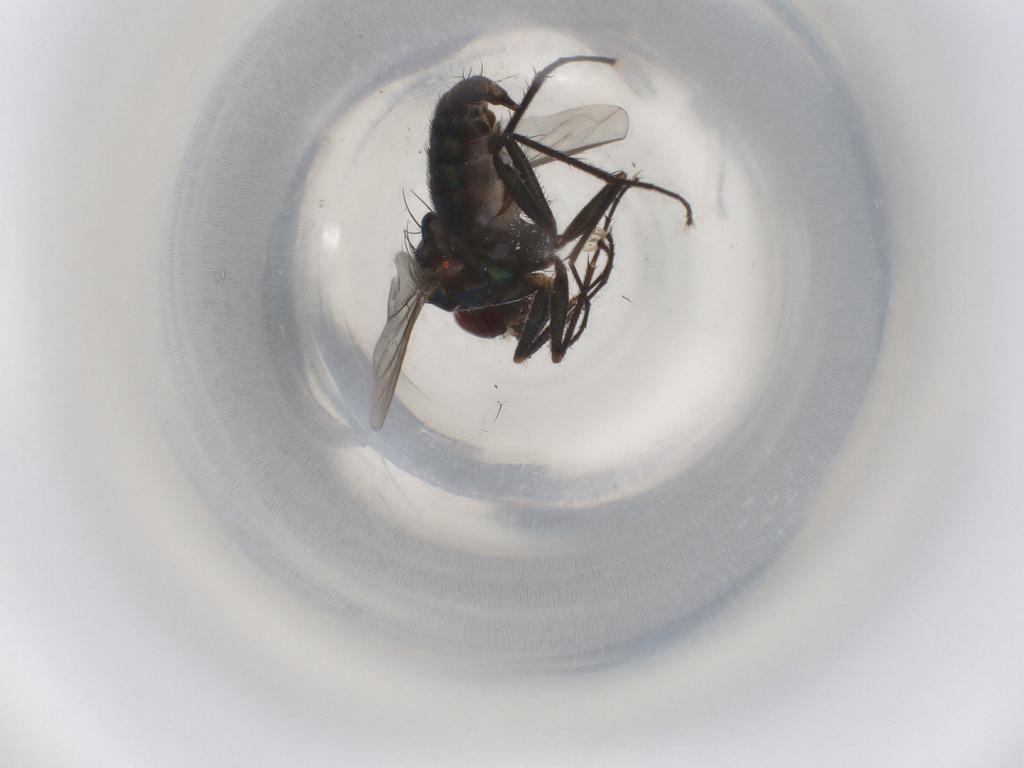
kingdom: Animalia
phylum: Arthropoda
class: Insecta
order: Diptera
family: Dolichopodidae
